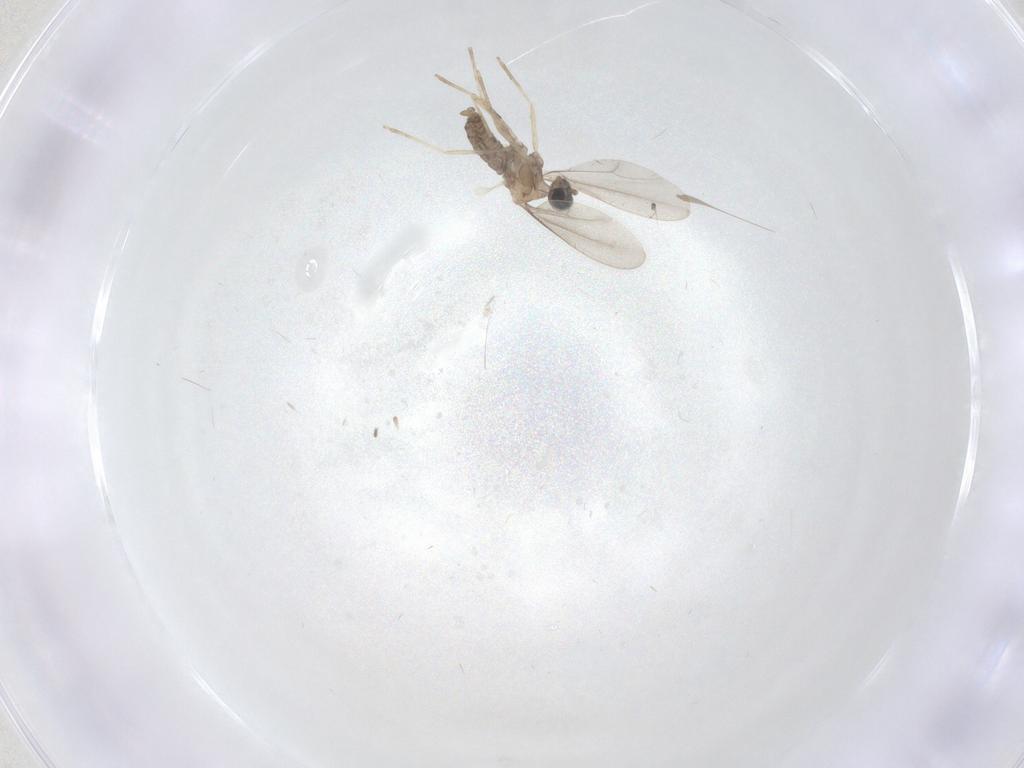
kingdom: Animalia
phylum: Arthropoda
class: Insecta
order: Diptera
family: Cecidomyiidae
